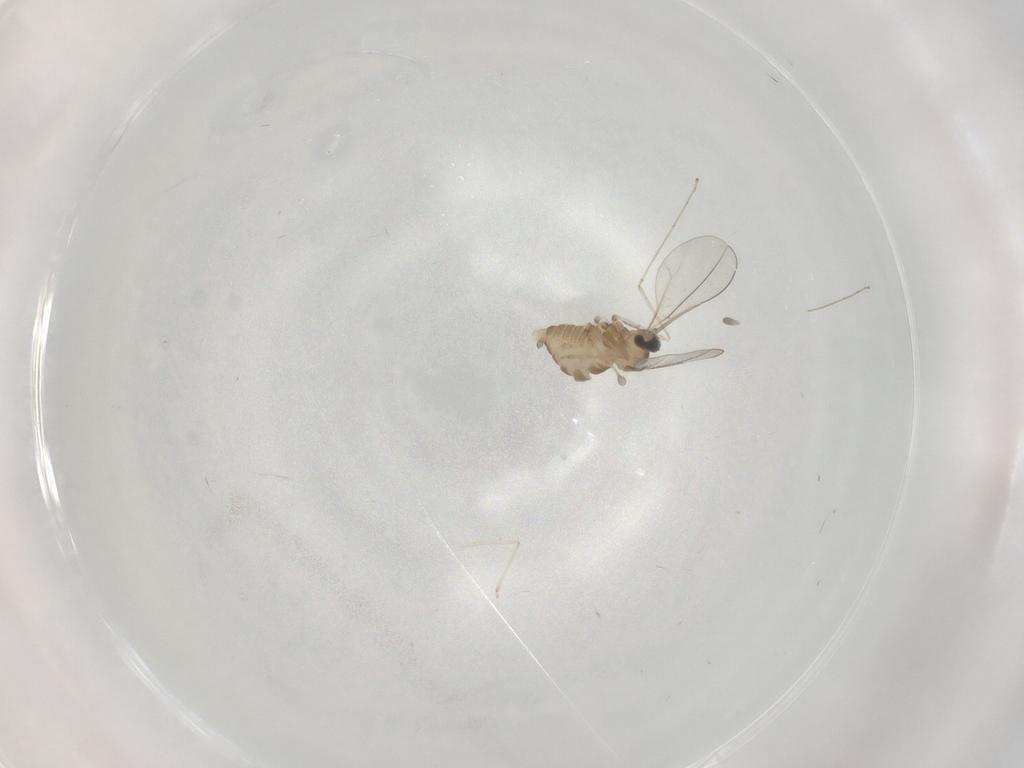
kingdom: Animalia
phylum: Arthropoda
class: Insecta
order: Diptera
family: Cecidomyiidae
